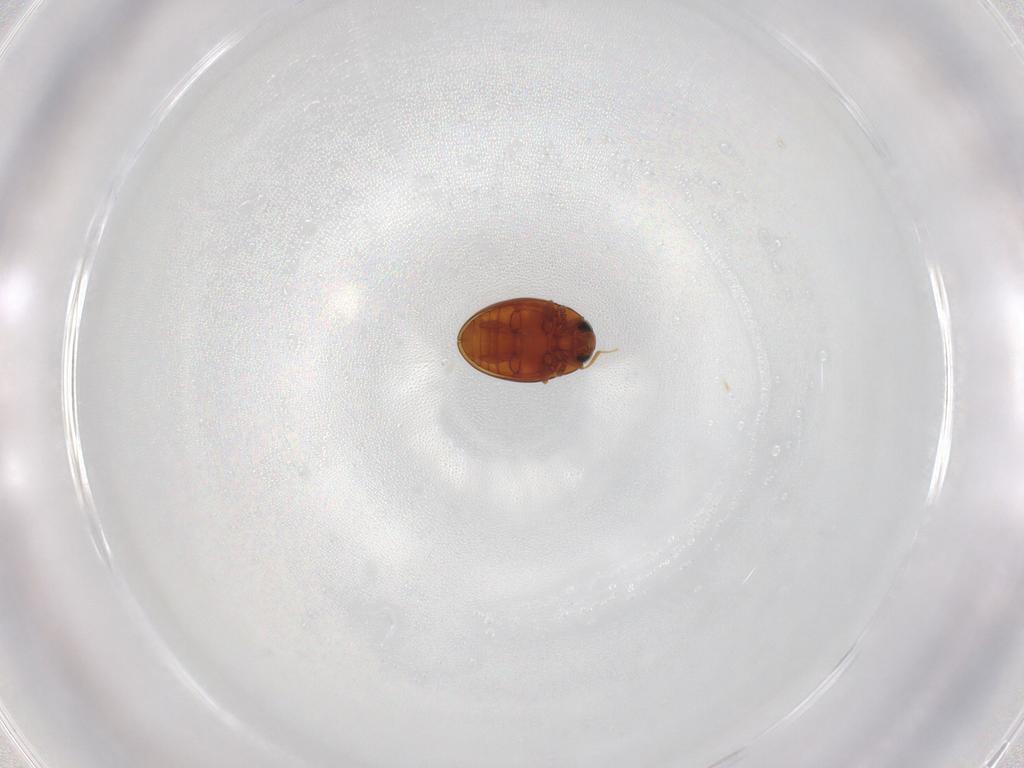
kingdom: Animalia
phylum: Arthropoda
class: Insecta
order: Coleoptera
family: Cryptophagidae
